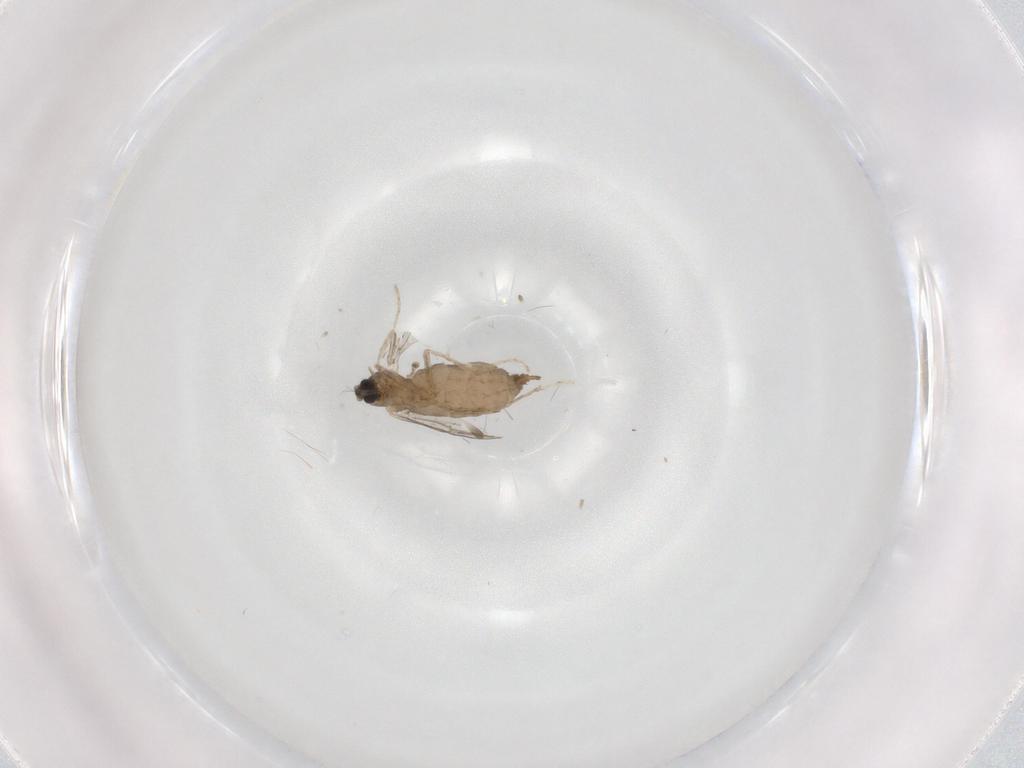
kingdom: Animalia
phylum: Arthropoda
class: Insecta
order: Diptera
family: Cecidomyiidae
